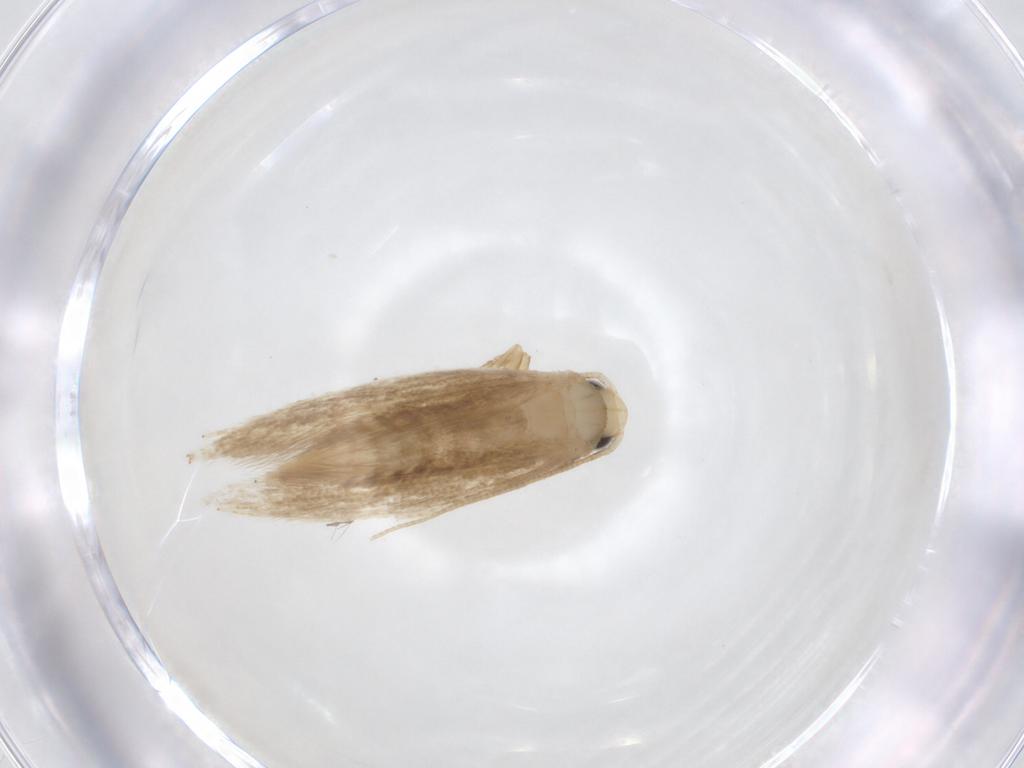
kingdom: Animalia
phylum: Arthropoda
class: Insecta
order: Lepidoptera
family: Tineidae
